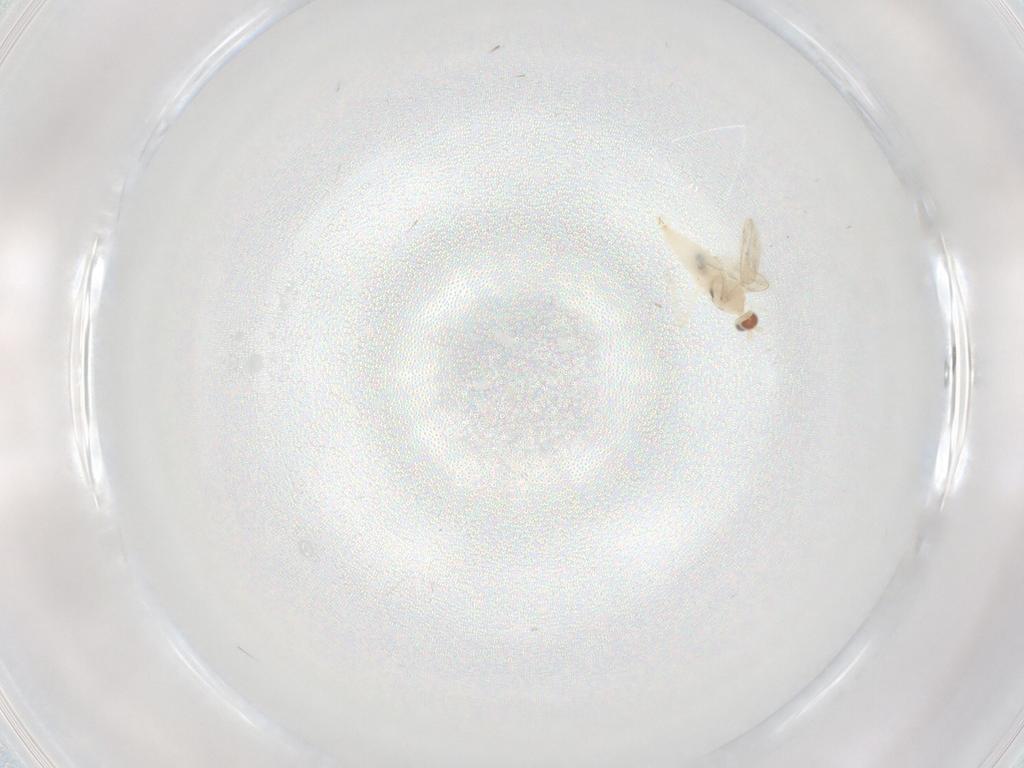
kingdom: Animalia
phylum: Arthropoda
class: Insecta
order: Diptera
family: Cecidomyiidae
